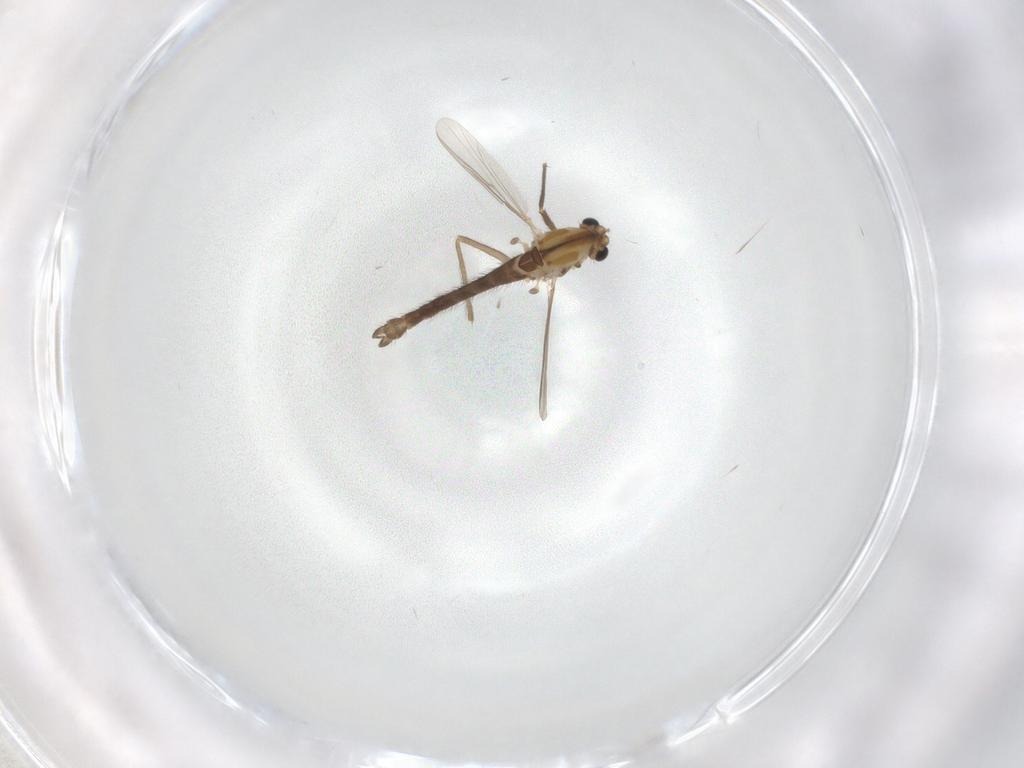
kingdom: Animalia
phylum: Arthropoda
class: Insecta
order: Diptera
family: Chironomidae
